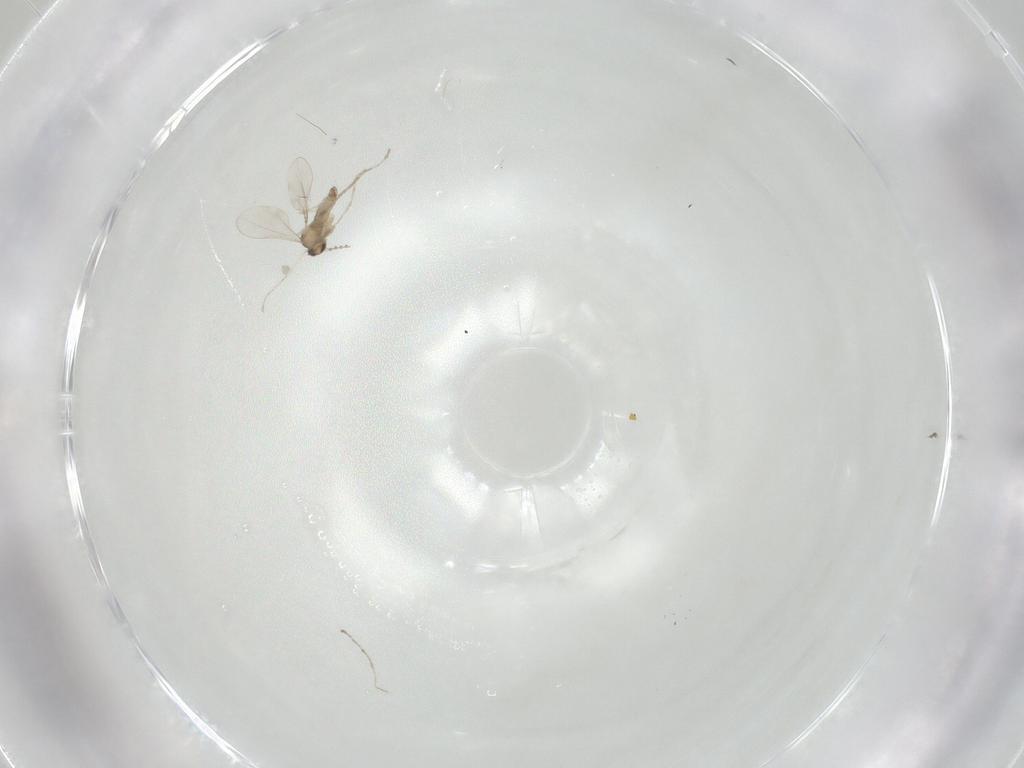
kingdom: Animalia
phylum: Arthropoda
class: Insecta
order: Diptera
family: Cecidomyiidae
